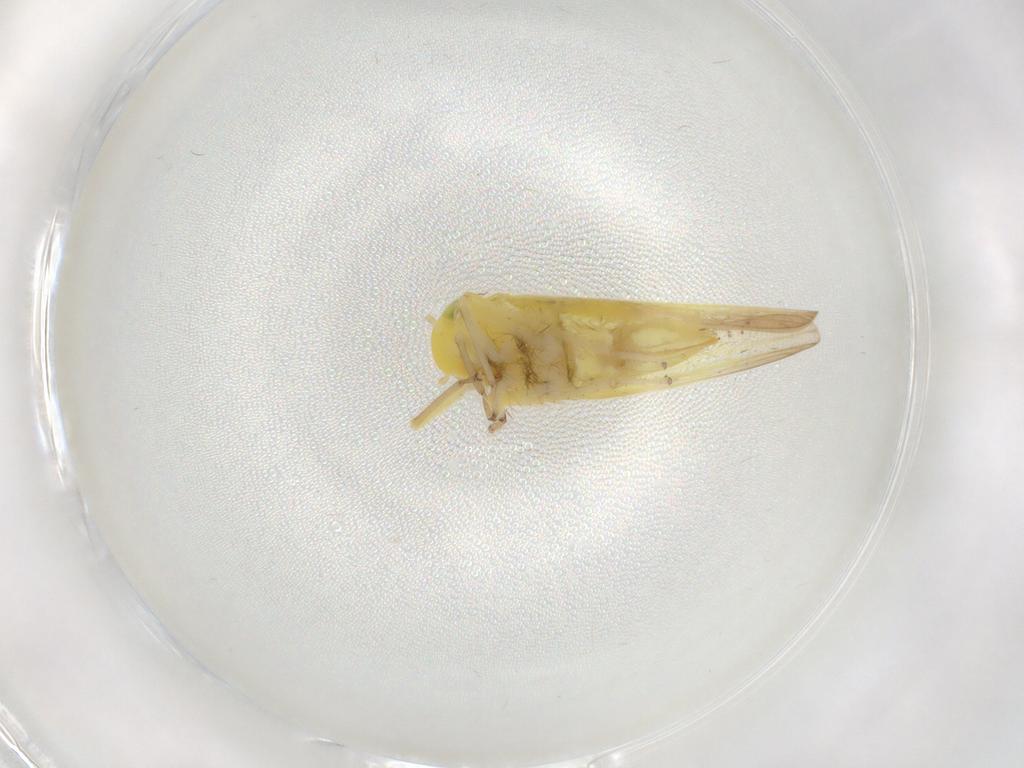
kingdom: Animalia
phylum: Arthropoda
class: Insecta
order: Hemiptera
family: Cicadellidae
